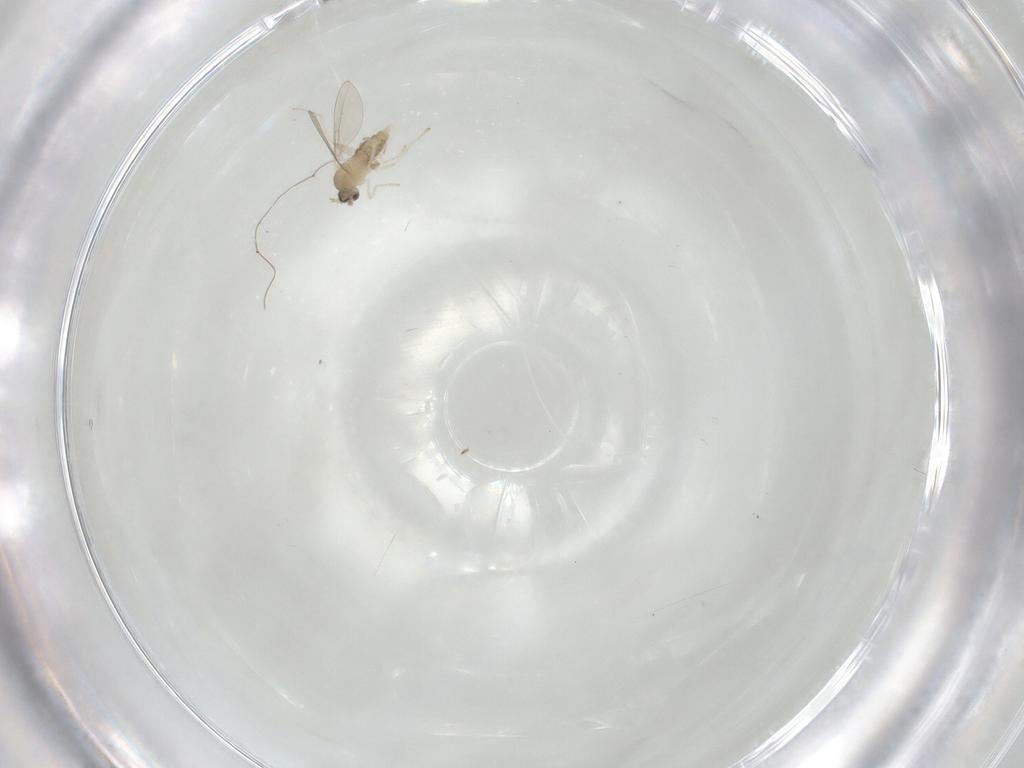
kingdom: Animalia
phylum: Arthropoda
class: Insecta
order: Diptera
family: Cecidomyiidae
